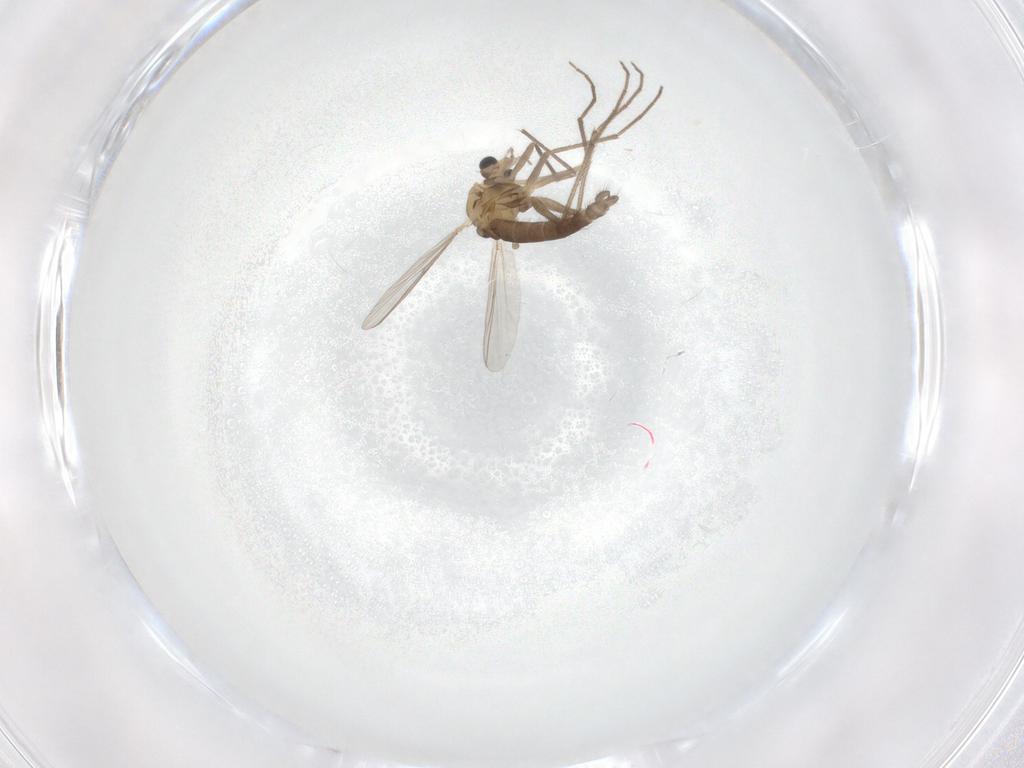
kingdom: Animalia
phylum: Arthropoda
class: Insecta
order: Diptera
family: Chironomidae
